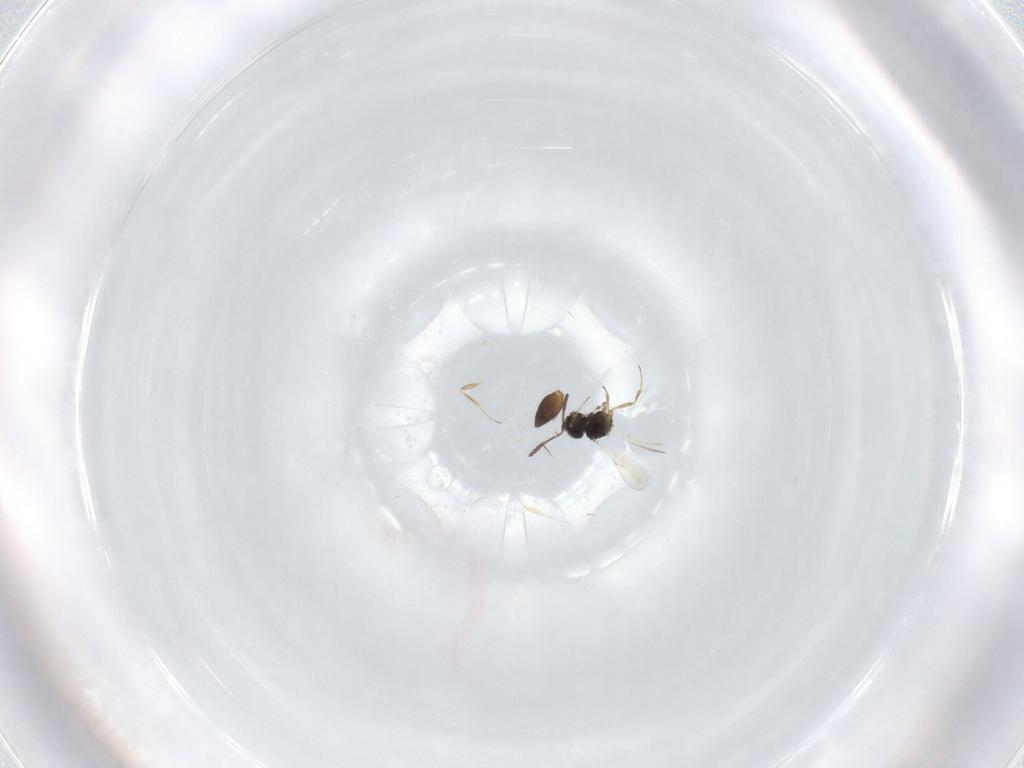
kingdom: Animalia
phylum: Arthropoda
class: Insecta
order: Hymenoptera
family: Scelionidae
